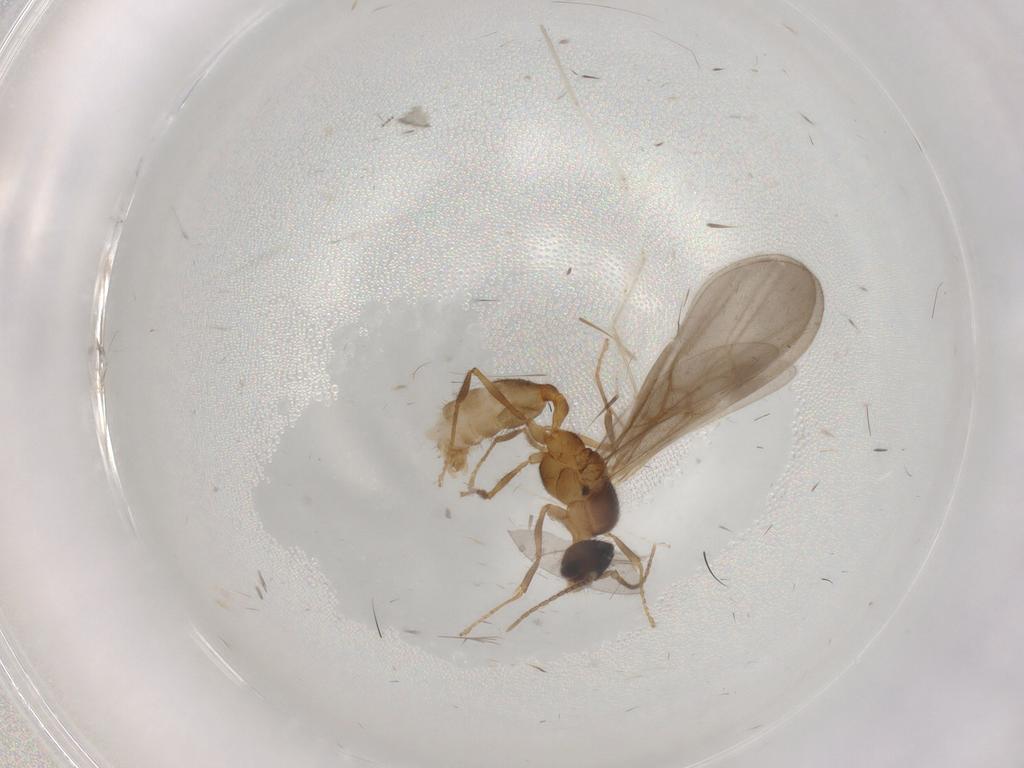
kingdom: Animalia
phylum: Arthropoda
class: Insecta
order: Hymenoptera
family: Formicidae
